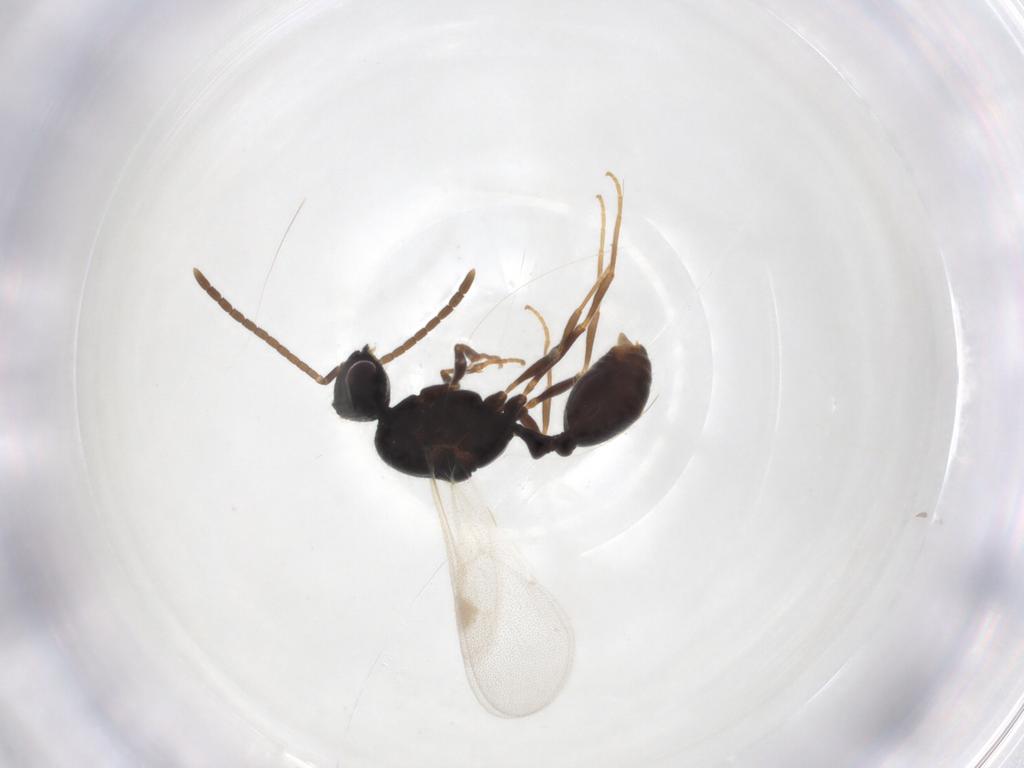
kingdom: Animalia
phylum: Arthropoda
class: Insecta
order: Hymenoptera
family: Formicidae
